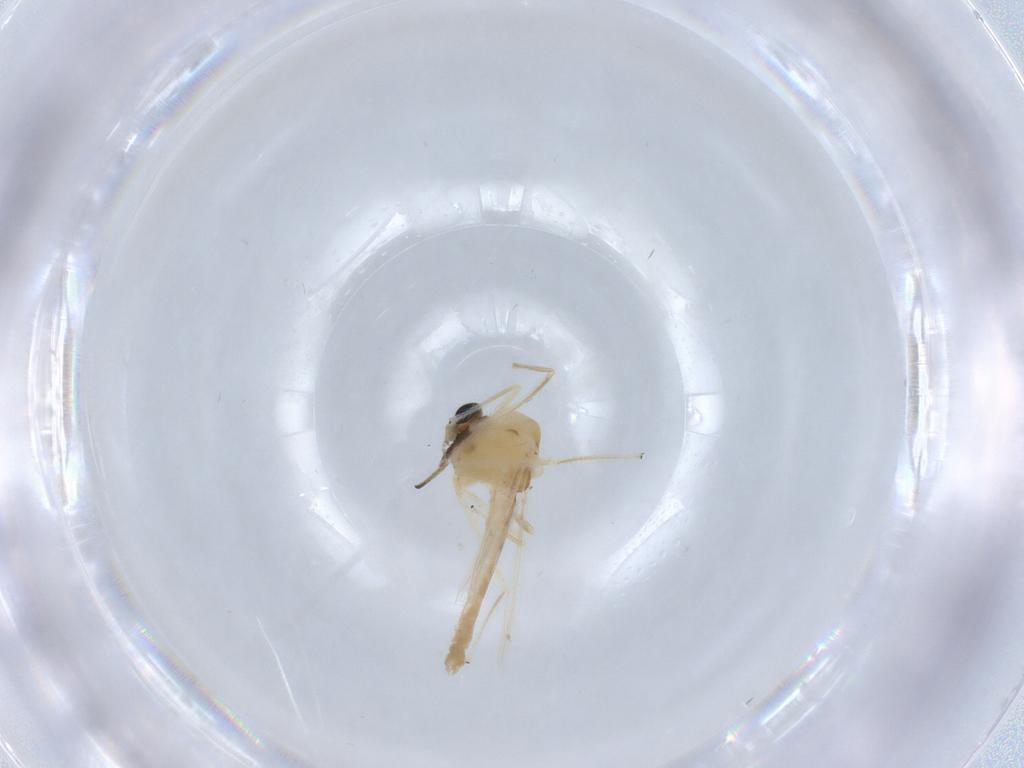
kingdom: Animalia
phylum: Arthropoda
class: Insecta
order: Diptera
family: Chironomidae
